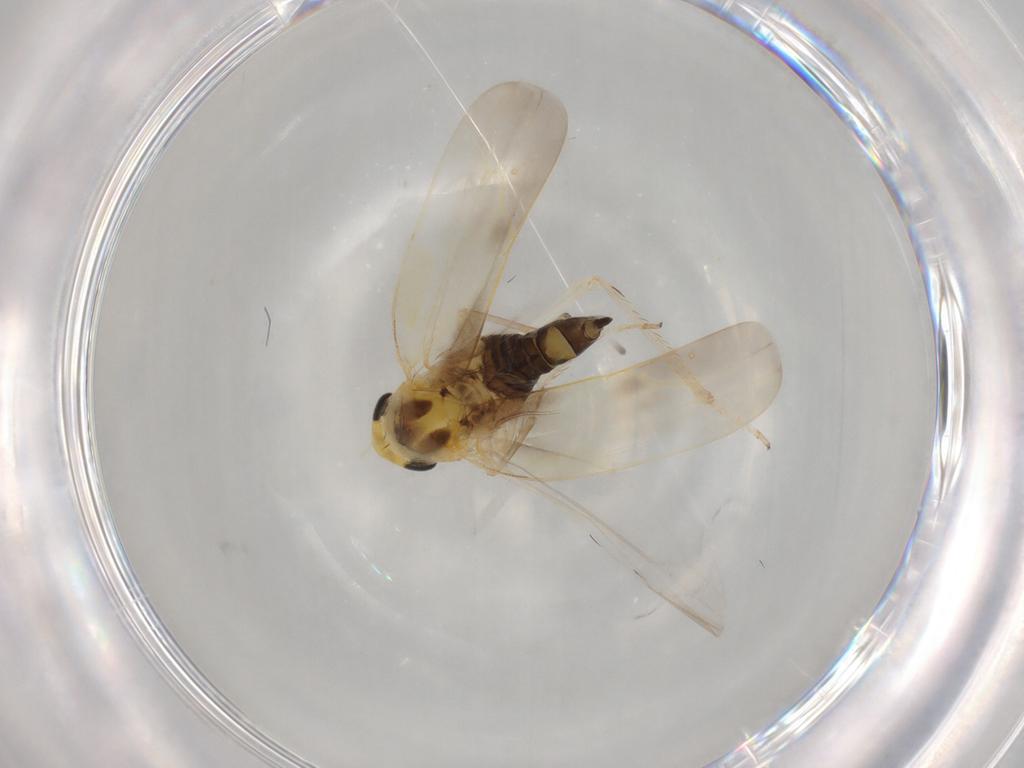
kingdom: Animalia
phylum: Arthropoda
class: Insecta
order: Hemiptera
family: Cicadellidae
